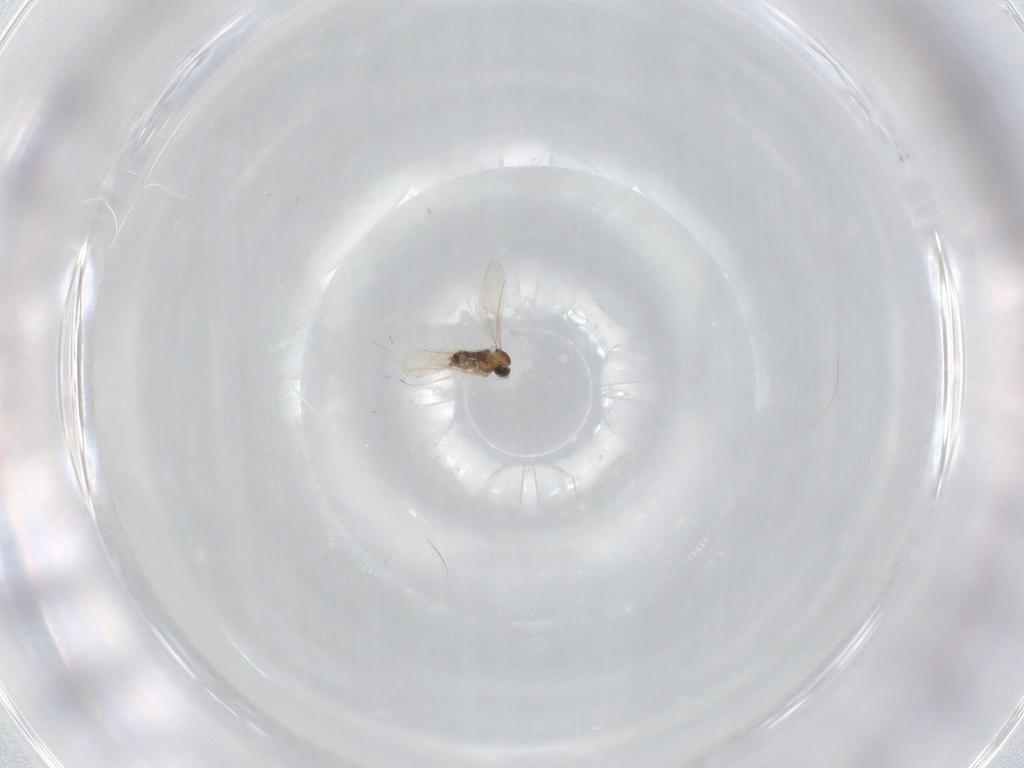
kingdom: Animalia
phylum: Arthropoda
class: Insecta
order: Diptera
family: Cecidomyiidae
